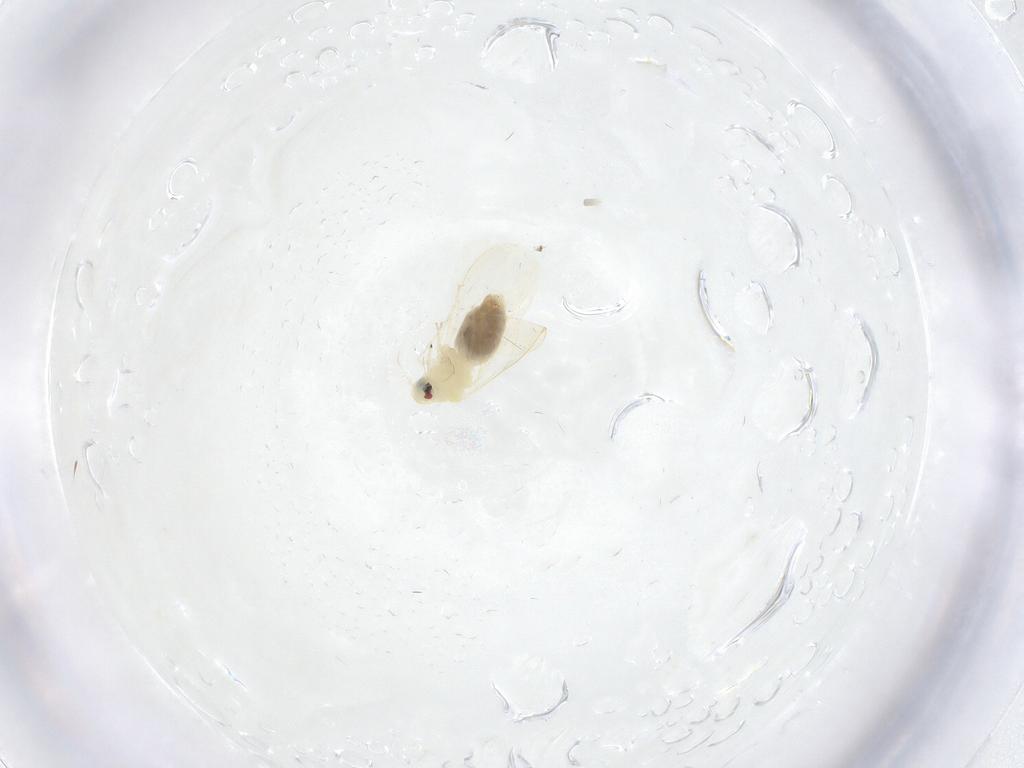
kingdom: Animalia
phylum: Arthropoda
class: Insecta
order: Hemiptera
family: Aleyrodidae
